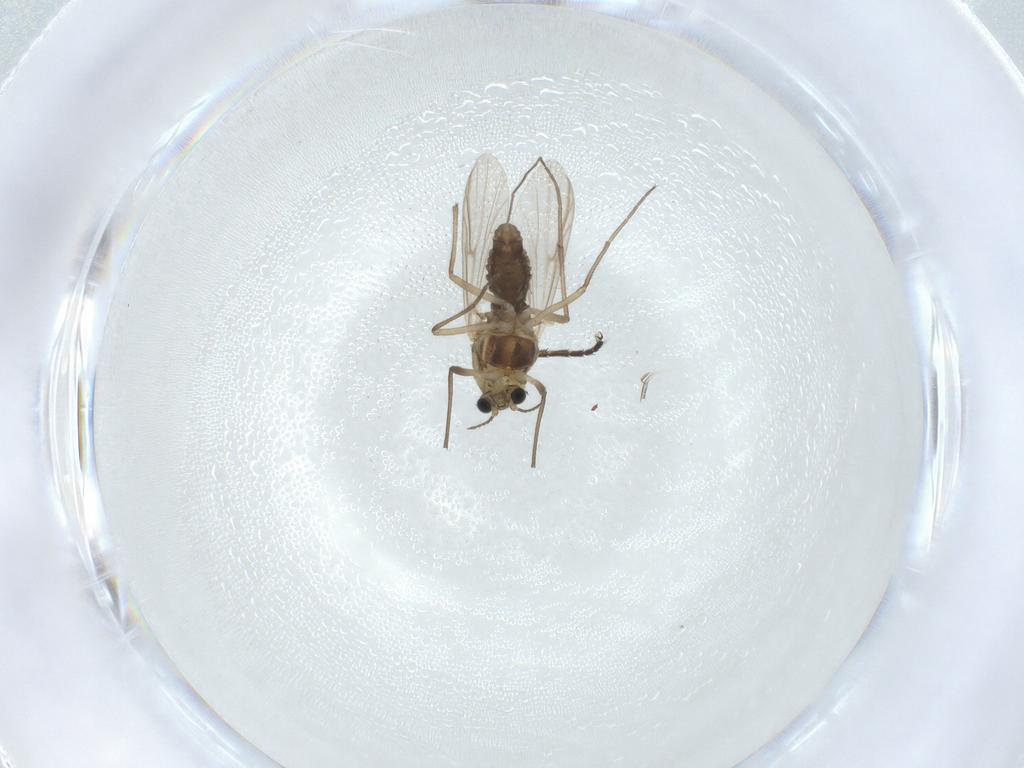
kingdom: Animalia
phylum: Arthropoda
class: Insecta
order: Diptera
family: Chironomidae
